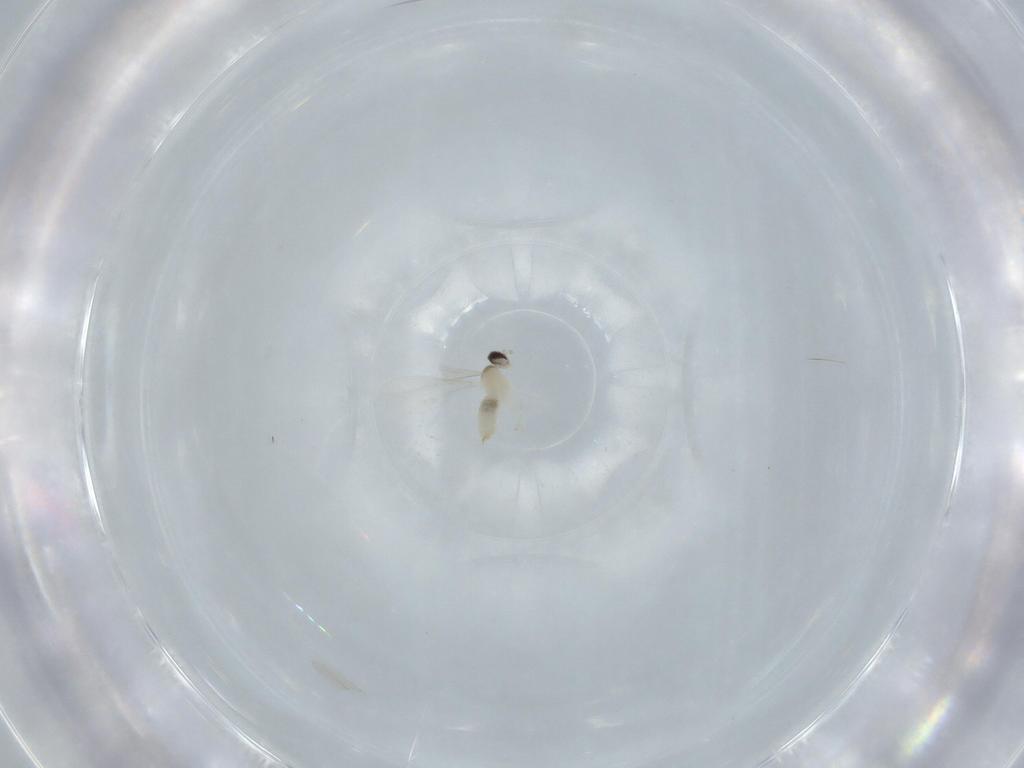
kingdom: Animalia
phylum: Arthropoda
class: Insecta
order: Diptera
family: Cecidomyiidae
